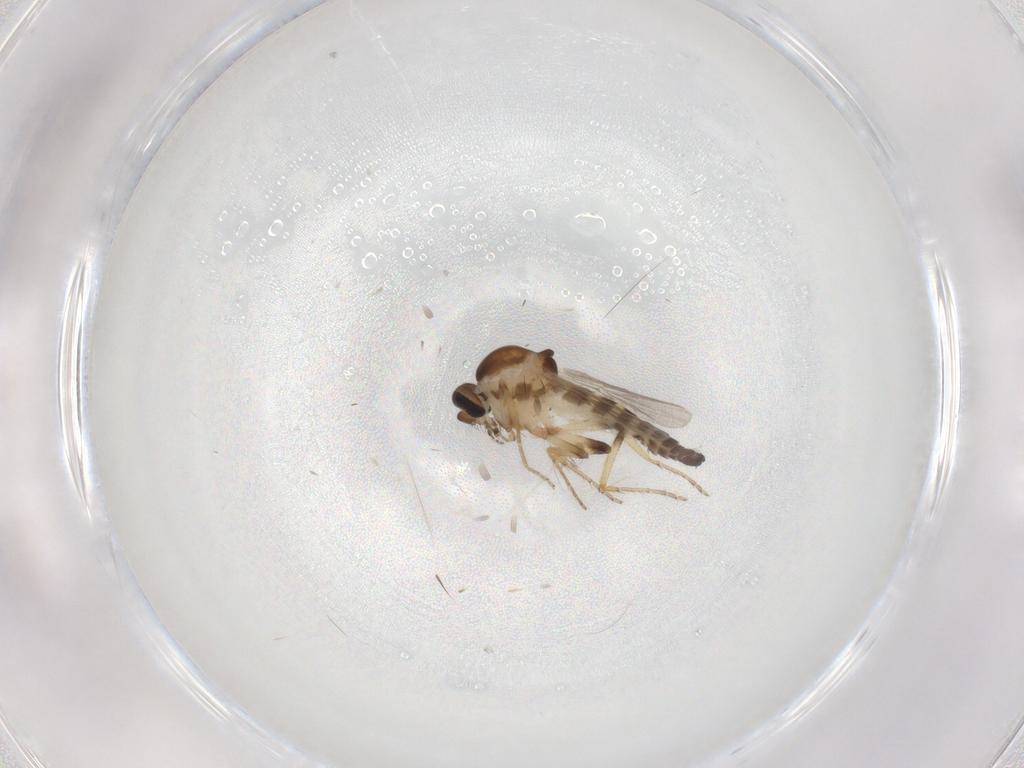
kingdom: Animalia
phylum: Arthropoda
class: Insecta
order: Diptera
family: Ceratopogonidae
